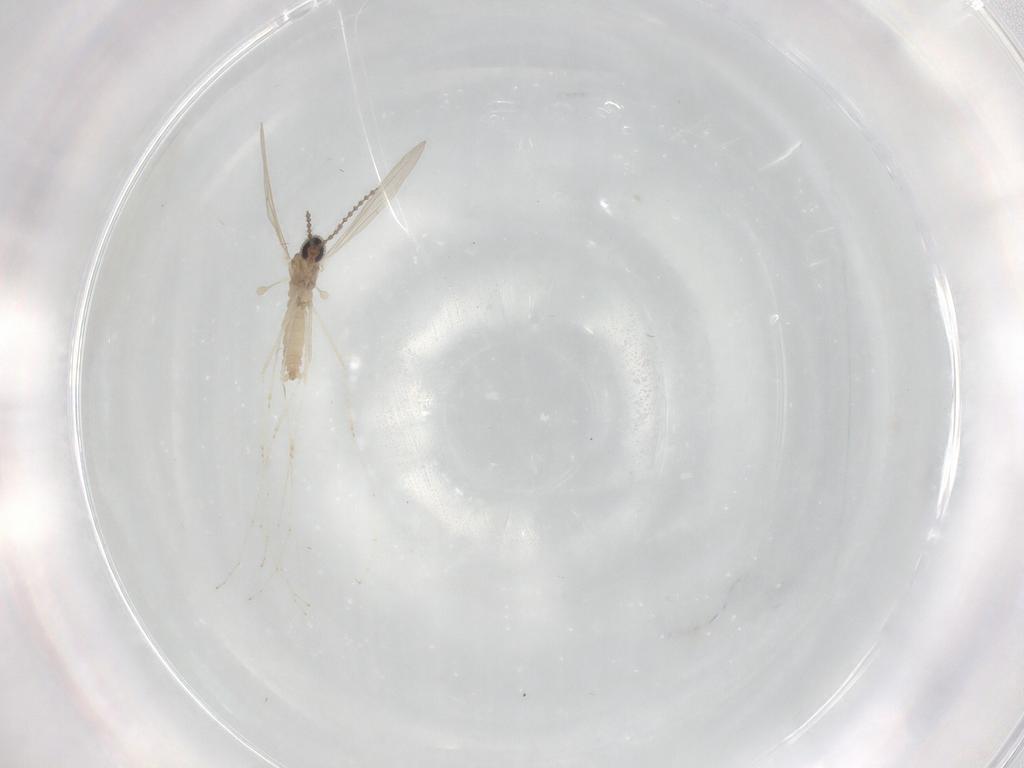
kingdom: Animalia
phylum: Arthropoda
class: Insecta
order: Diptera
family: Cecidomyiidae
